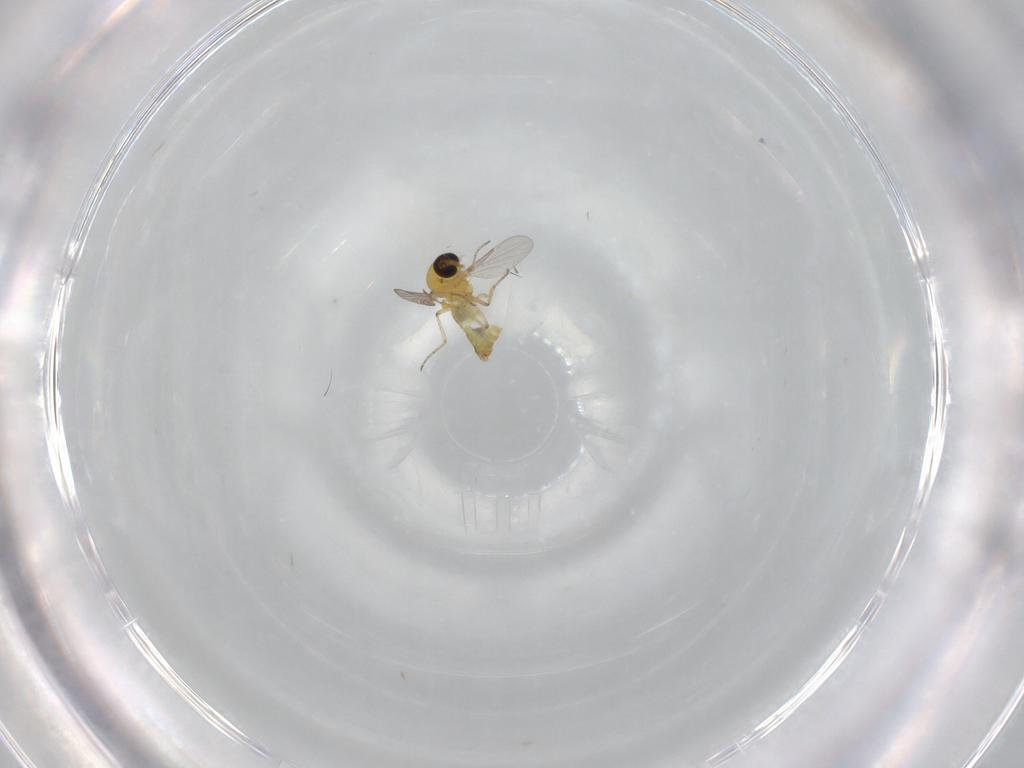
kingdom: Animalia
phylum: Arthropoda
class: Insecta
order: Diptera
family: Ceratopogonidae
